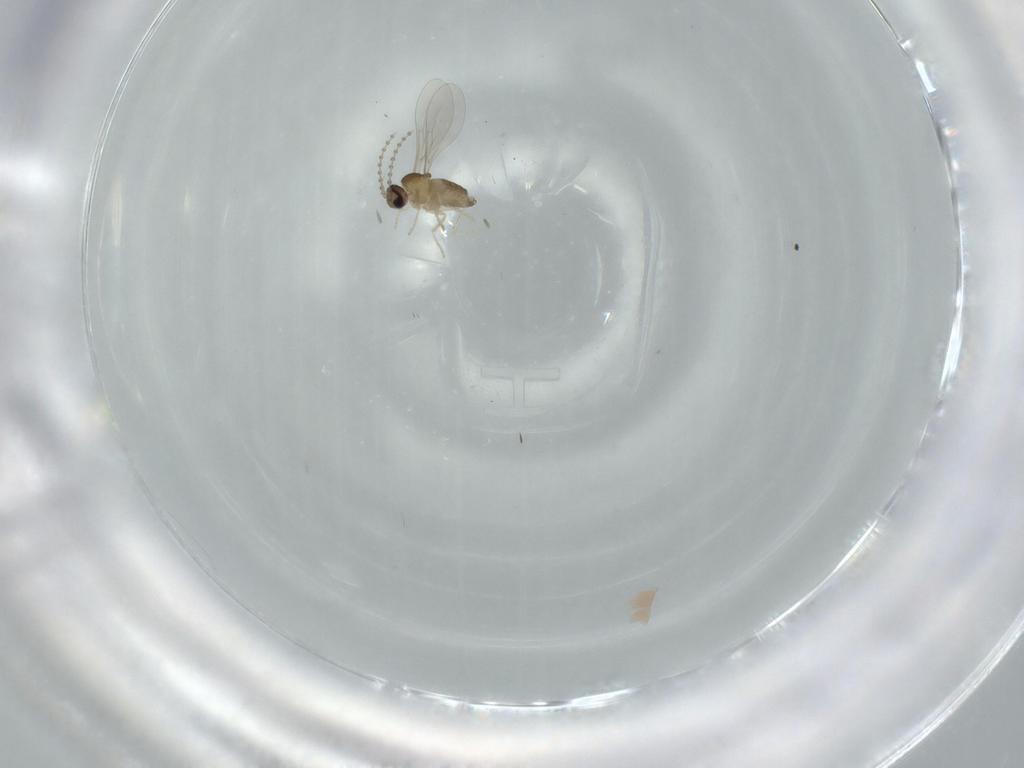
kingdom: Animalia
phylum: Arthropoda
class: Insecta
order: Diptera
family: Cecidomyiidae
